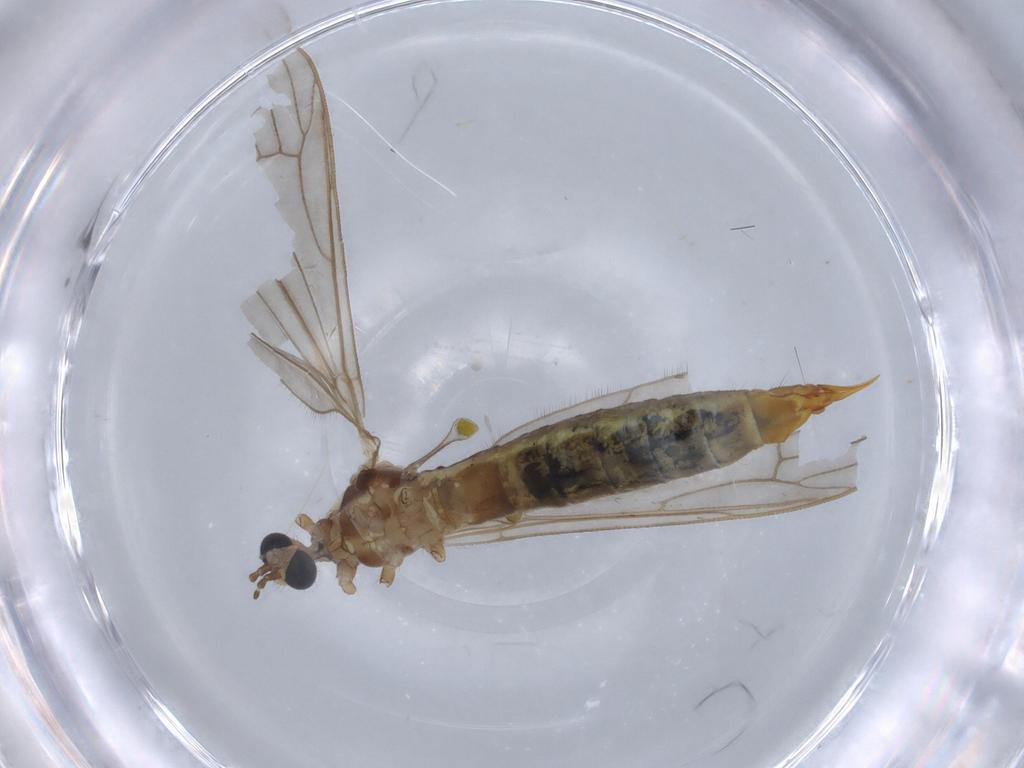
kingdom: Animalia
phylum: Arthropoda
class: Insecta
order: Diptera
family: Limoniidae
